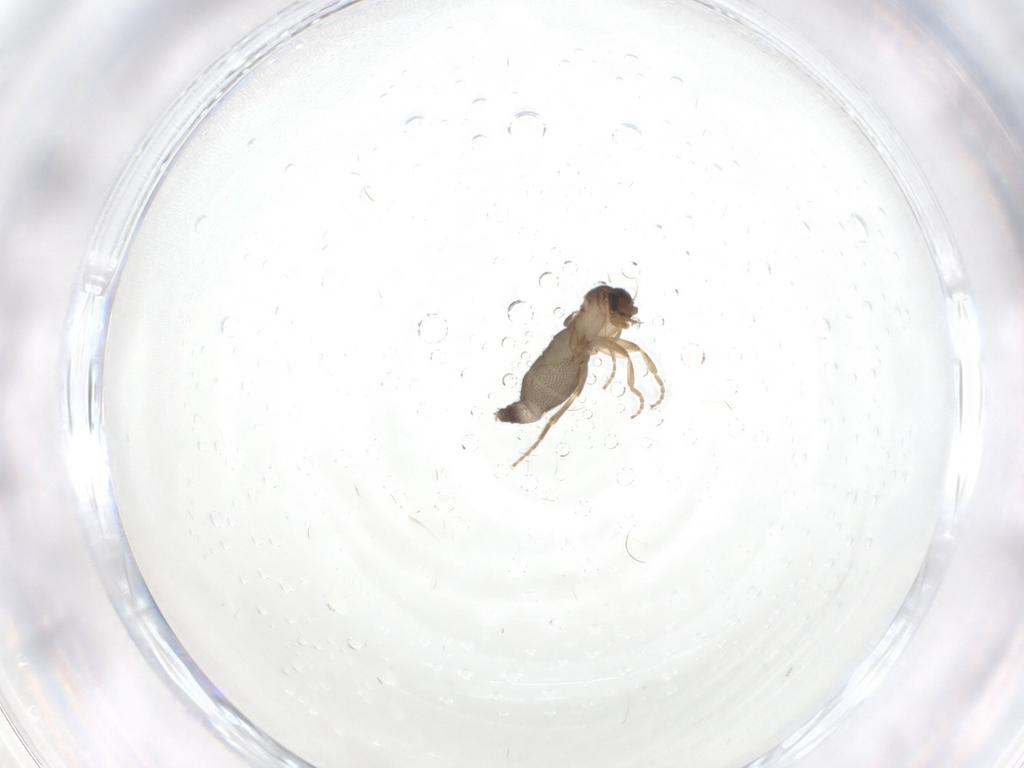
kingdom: Animalia
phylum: Arthropoda
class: Insecta
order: Diptera
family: Phoridae
